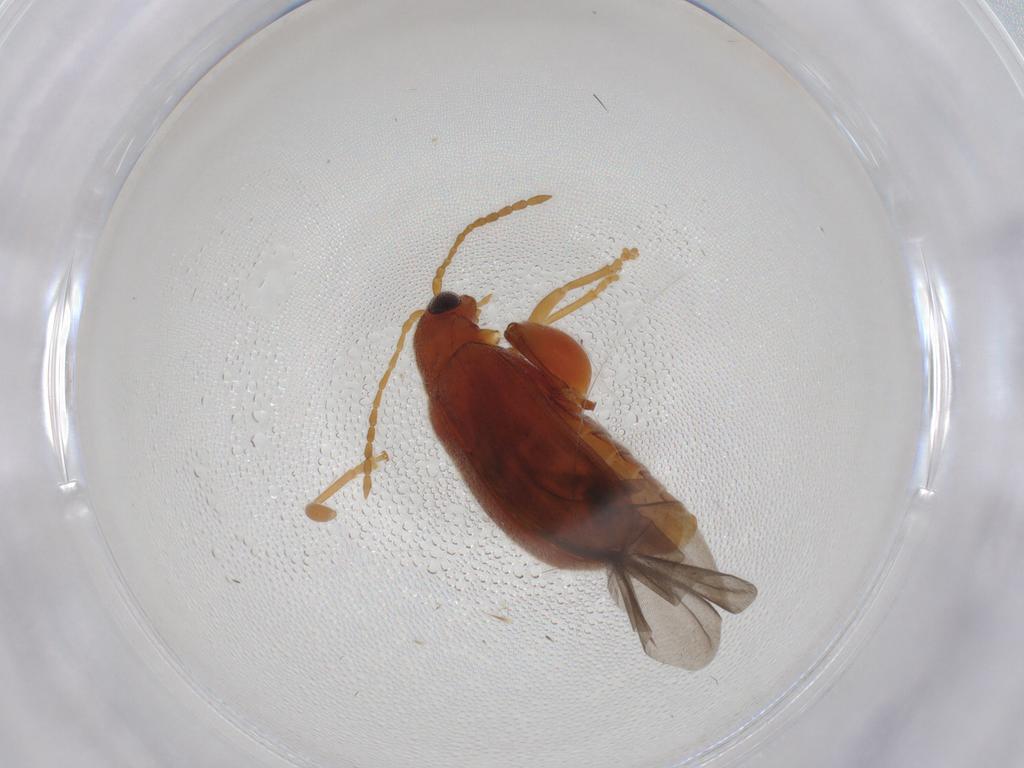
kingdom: Animalia
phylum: Arthropoda
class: Insecta
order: Coleoptera
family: Chrysomelidae
